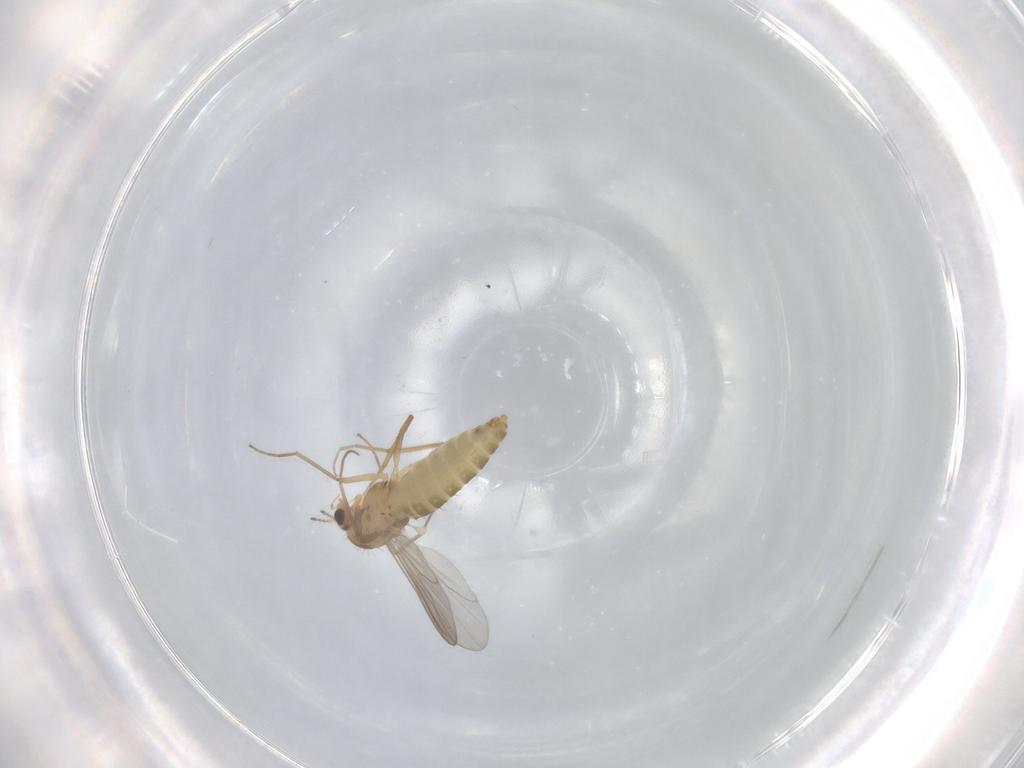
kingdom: Animalia
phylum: Arthropoda
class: Insecta
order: Diptera
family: Chironomidae
